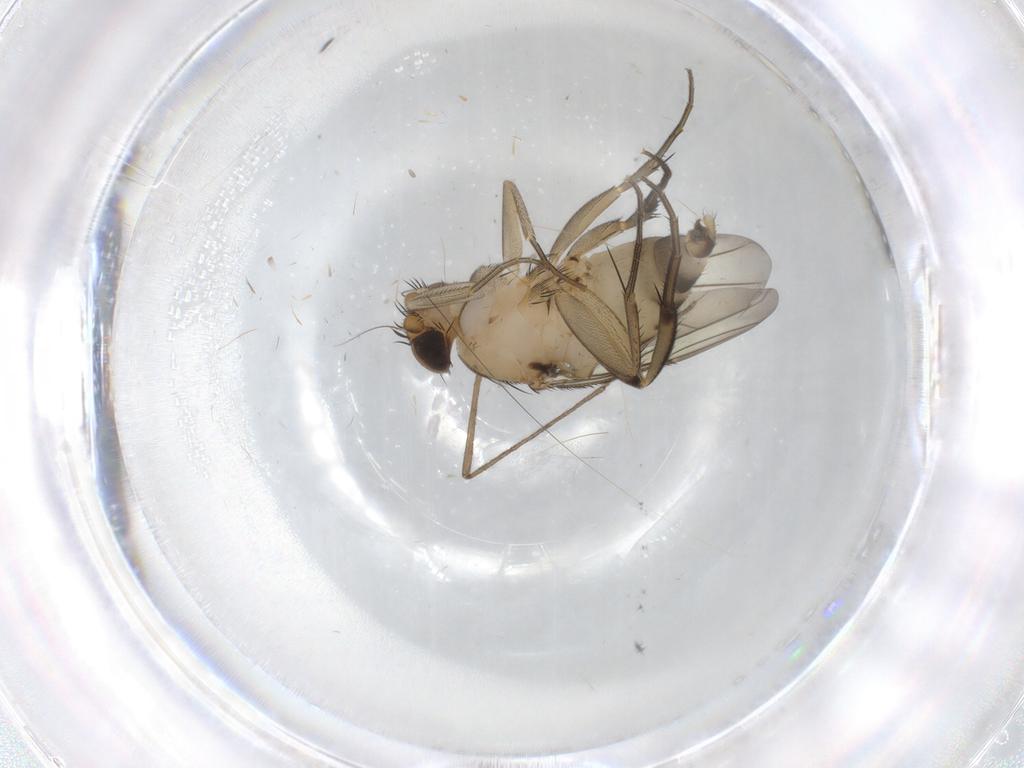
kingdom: Animalia
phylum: Arthropoda
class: Insecta
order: Diptera
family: Phoridae
